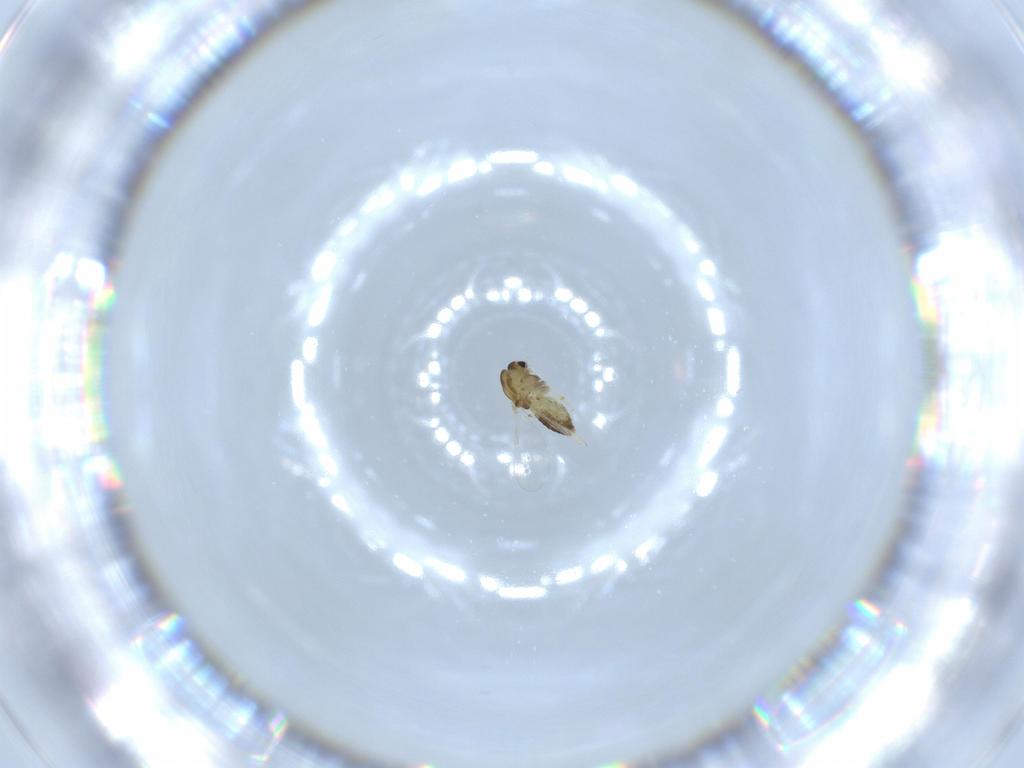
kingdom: Animalia
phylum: Arthropoda
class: Insecta
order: Diptera
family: Chironomidae
